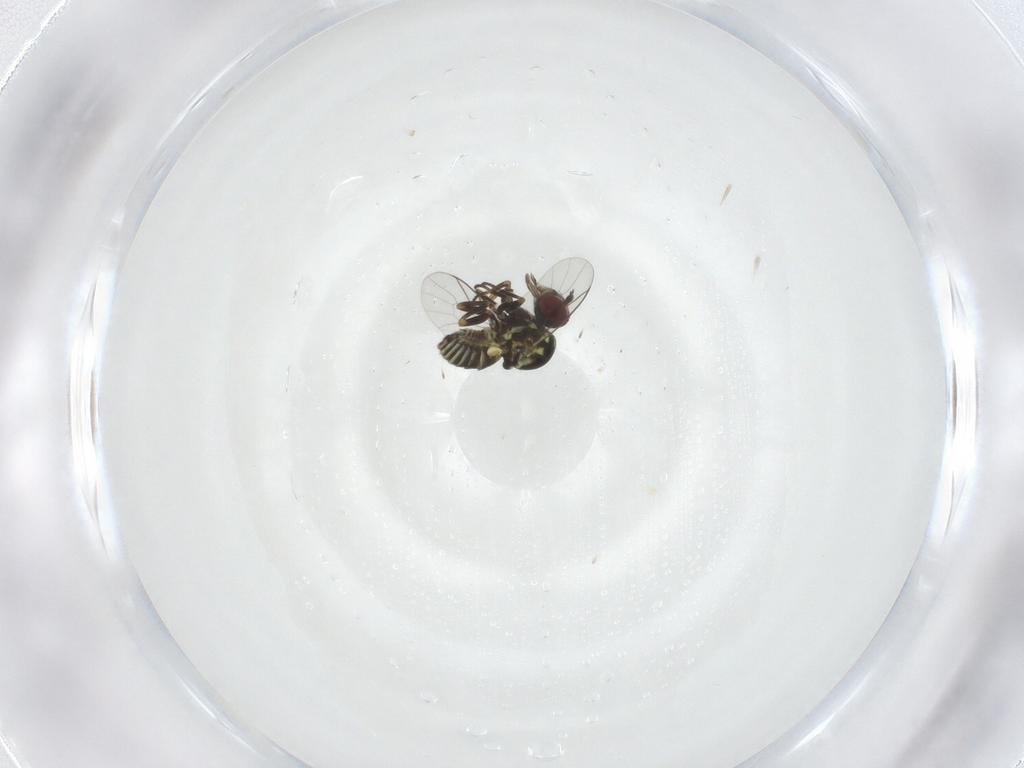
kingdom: Animalia
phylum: Arthropoda
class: Insecta
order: Diptera
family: Mythicomyiidae
